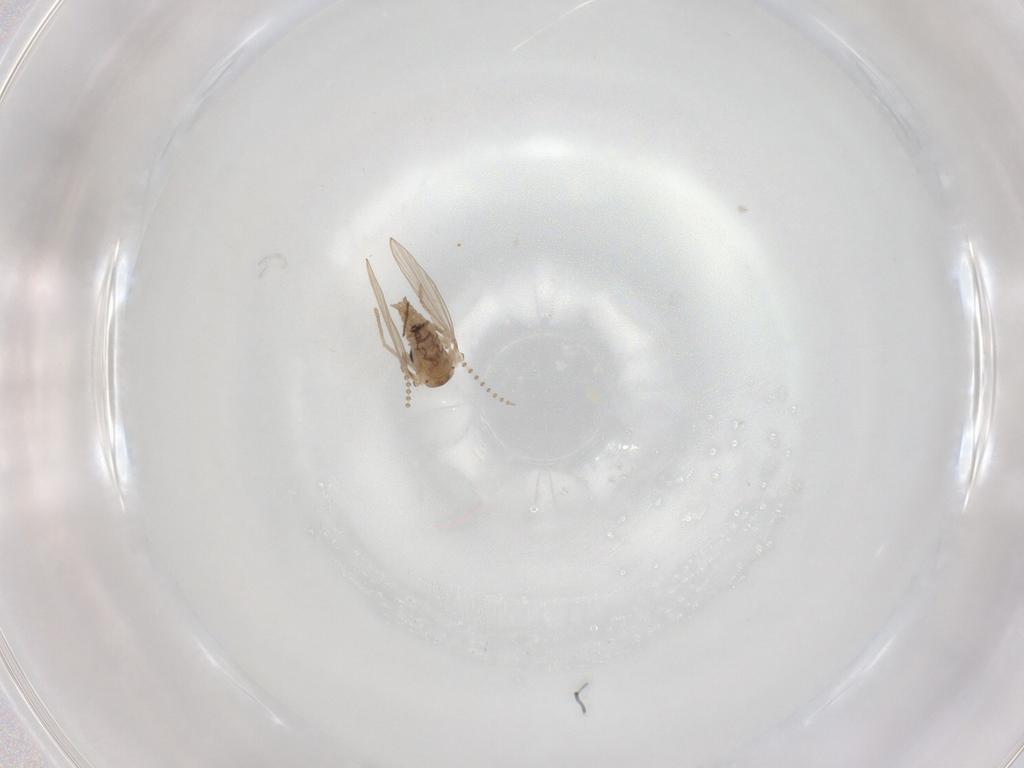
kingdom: Animalia
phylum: Arthropoda
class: Insecta
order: Diptera
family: Psychodidae
